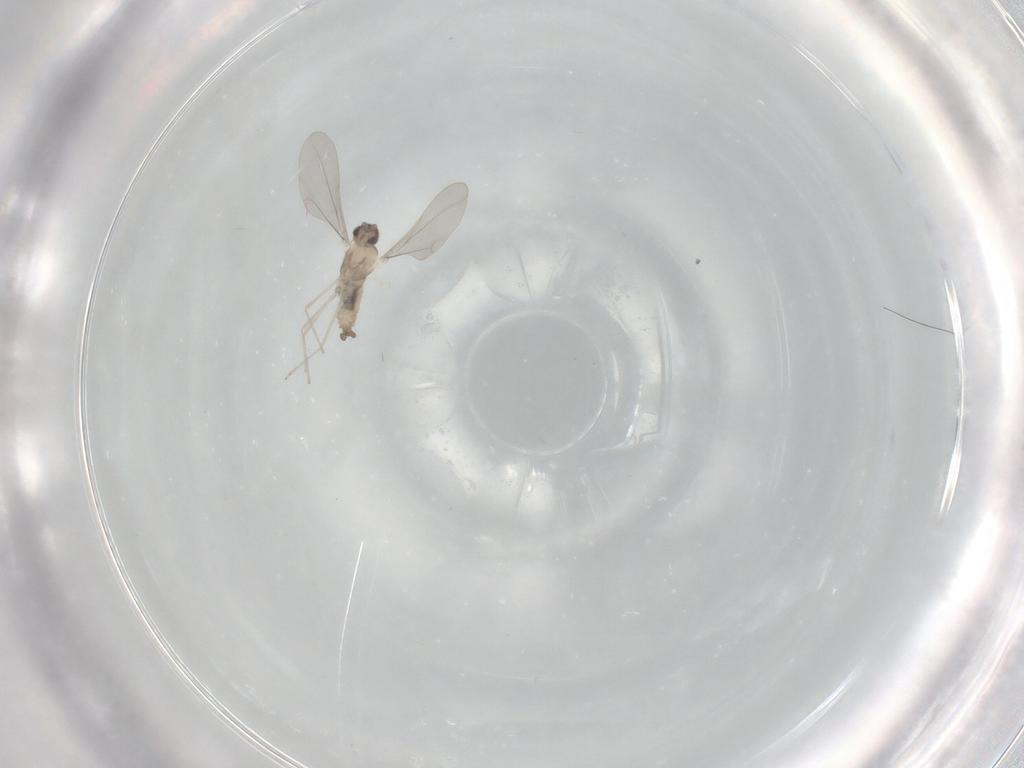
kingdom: Animalia
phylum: Arthropoda
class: Insecta
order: Diptera
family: Cecidomyiidae
